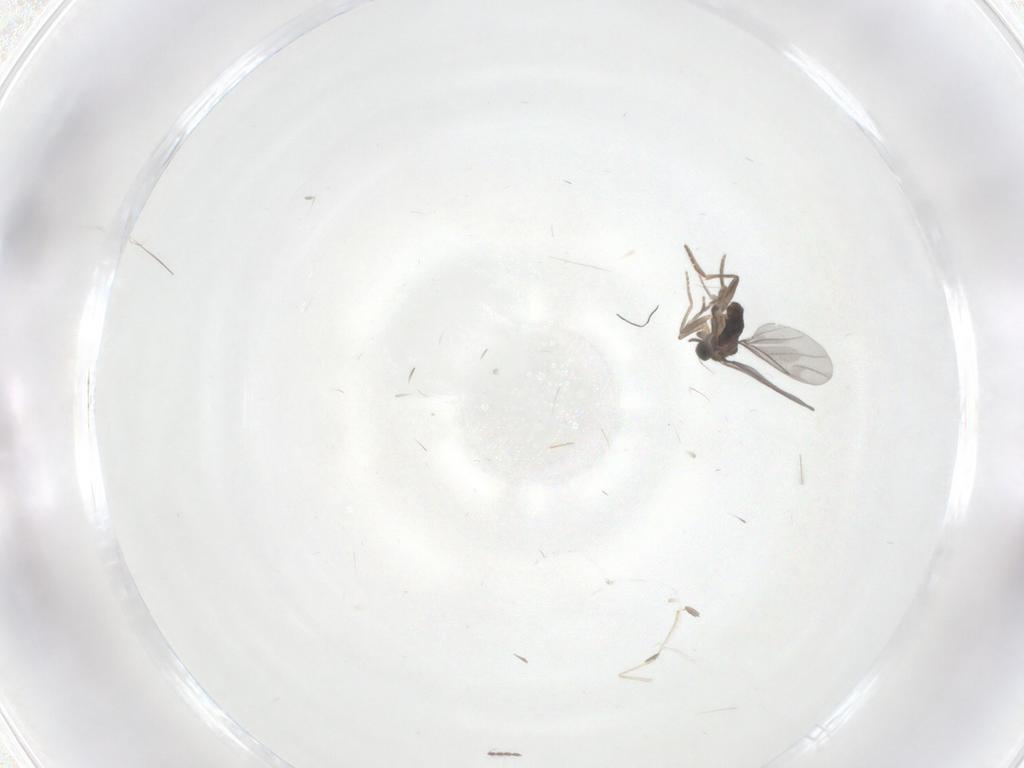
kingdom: Animalia
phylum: Arthropoda
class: Insecta
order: Diptera
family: Cecidomyiidae
